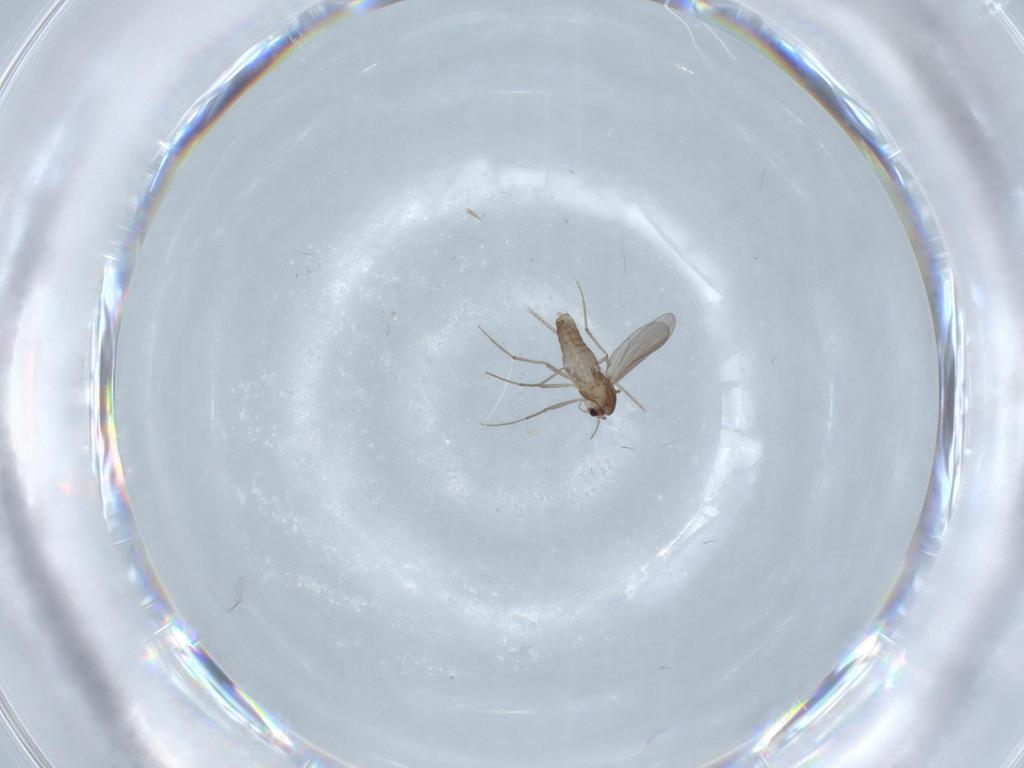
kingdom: Animalia
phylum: Arthropoda
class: Insecta
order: Diptera
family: Chironomidae
